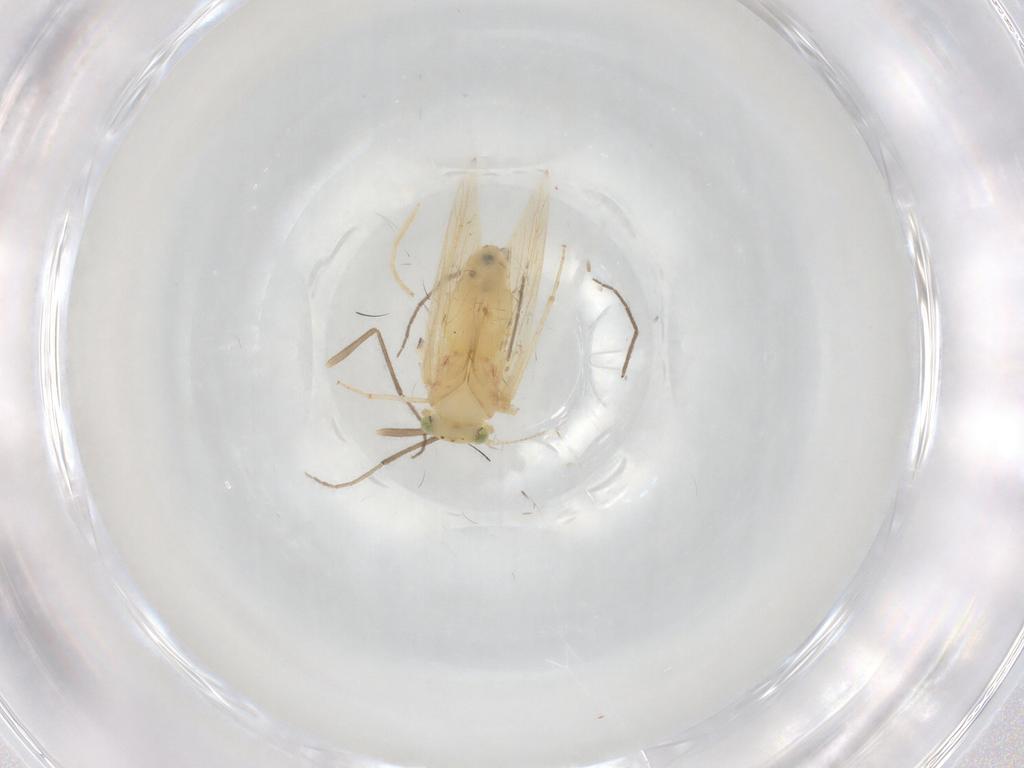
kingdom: Animalia
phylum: Arthropoda
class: Insecta
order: Psocodea
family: Lepidopsocidae
